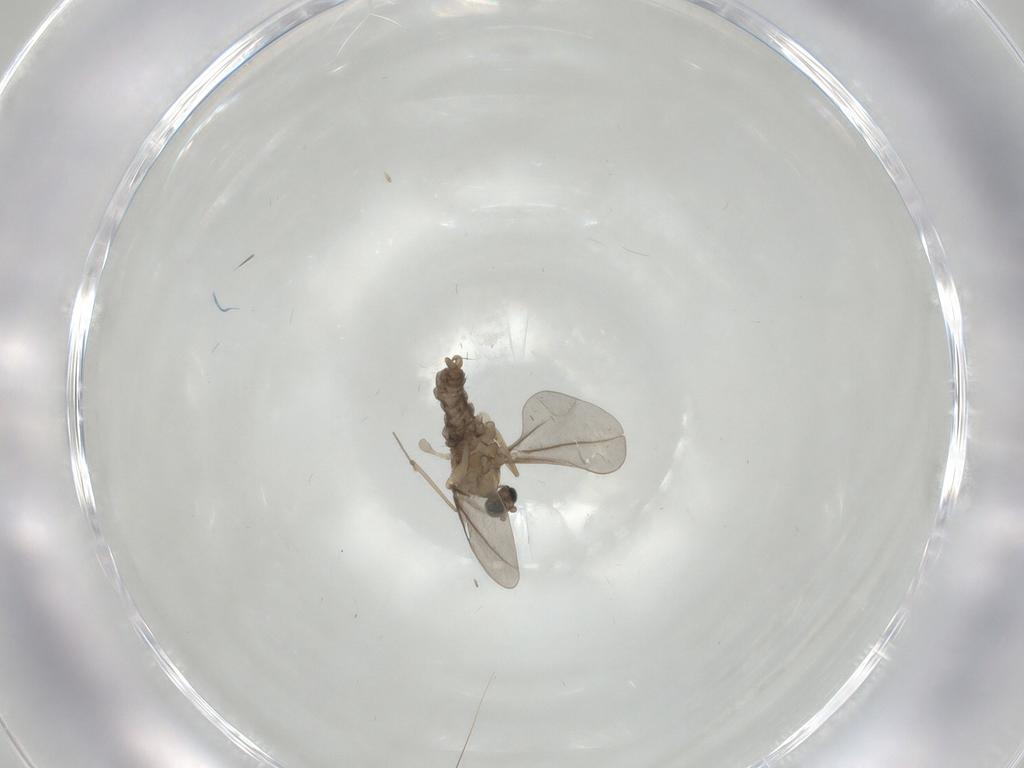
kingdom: Animalia
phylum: Arthropoda
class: Insecta
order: Diptera
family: Cecidomyiidae
